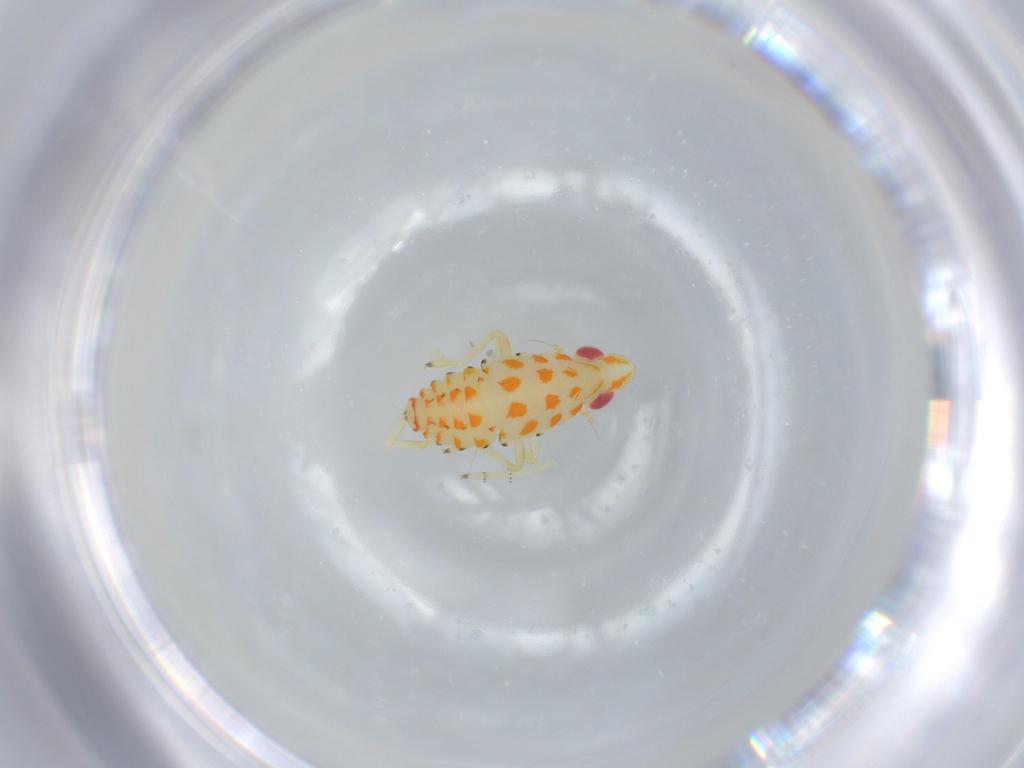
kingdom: Animalia
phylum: Arthropoda
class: Insecta
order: Hemiptera
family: Tropiduchidae
